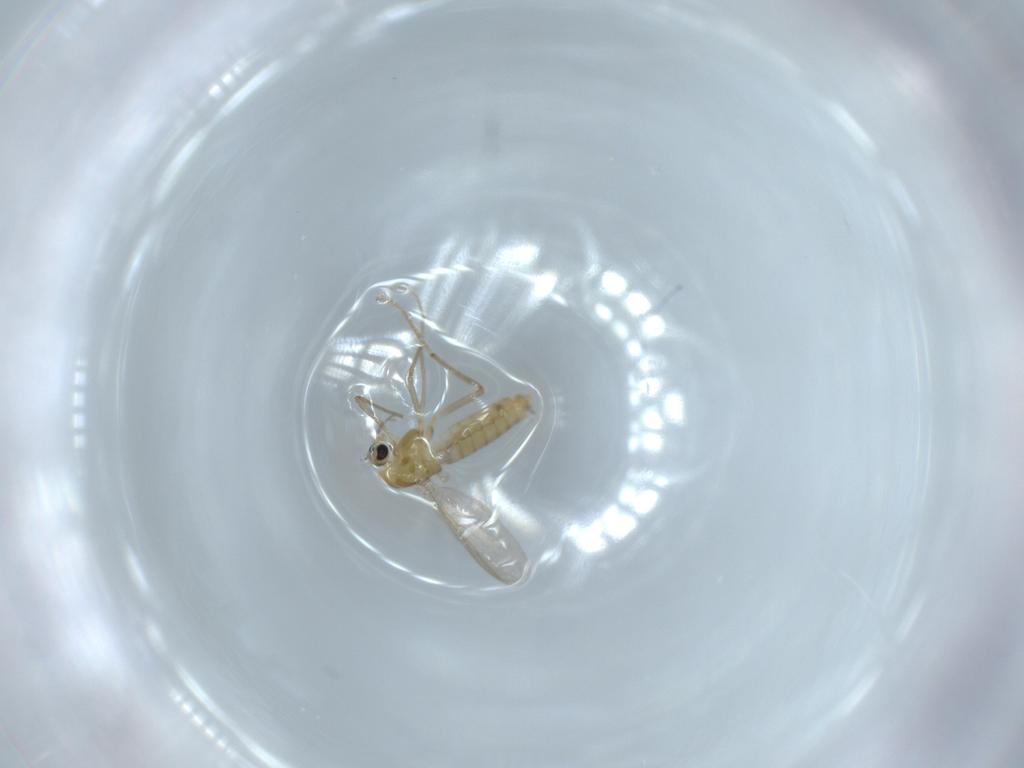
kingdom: Animalia
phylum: Arthropoda
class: Insecta
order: Diptera
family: Chironomidae
